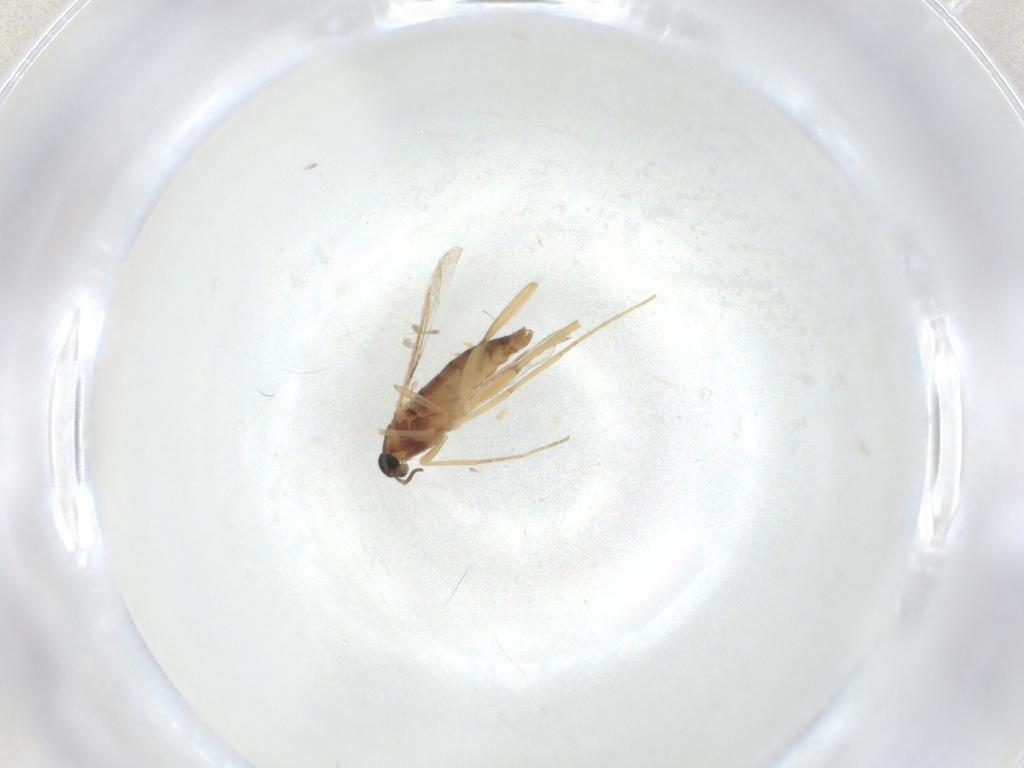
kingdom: Animalia
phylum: Arthropoda
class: Insecta
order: Diptera
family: Cecidomyiidae
